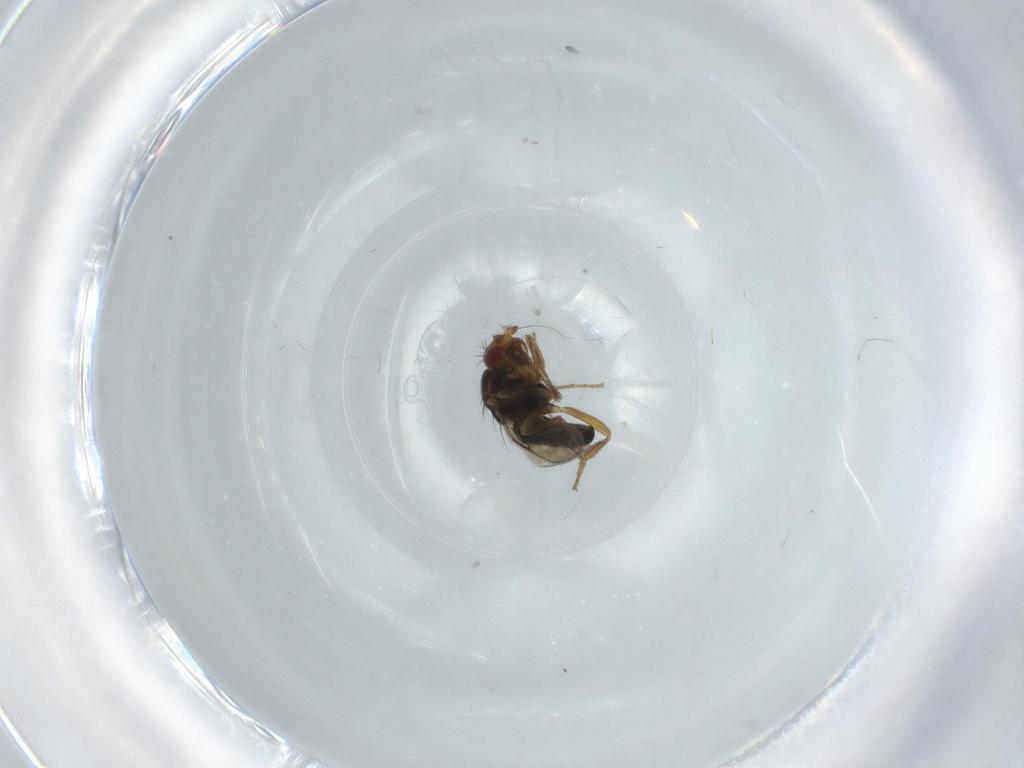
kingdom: Animalia
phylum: Arthropoda
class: Insecta
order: Diptera
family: Sphaeroceridae
